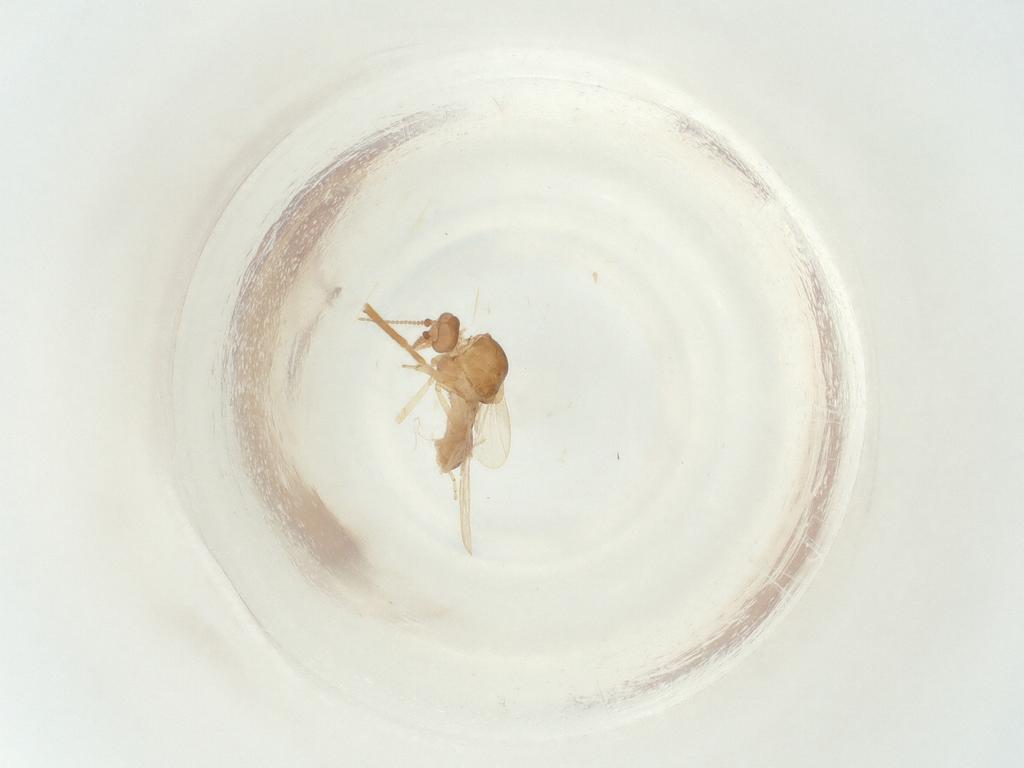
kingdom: Animalia
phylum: Arthropoda
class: Insecta
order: Diptera
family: Ceratopogonidae
